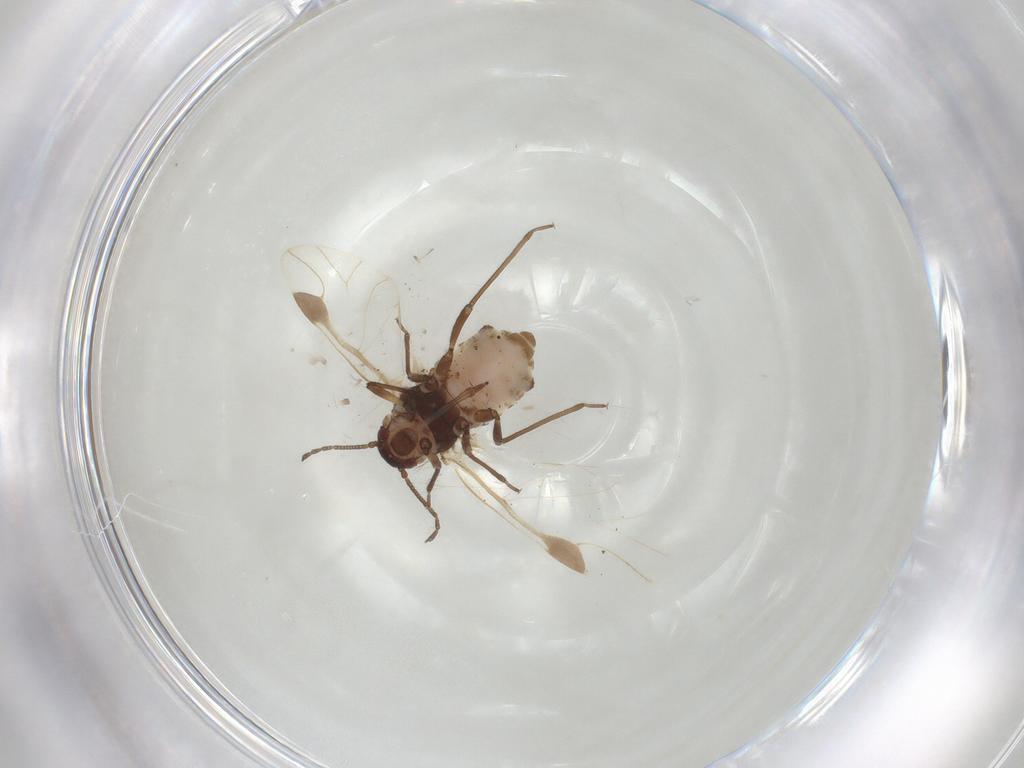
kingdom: Animalia
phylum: Arthropoda
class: Insecta
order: Hemiptera
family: Aphididae
